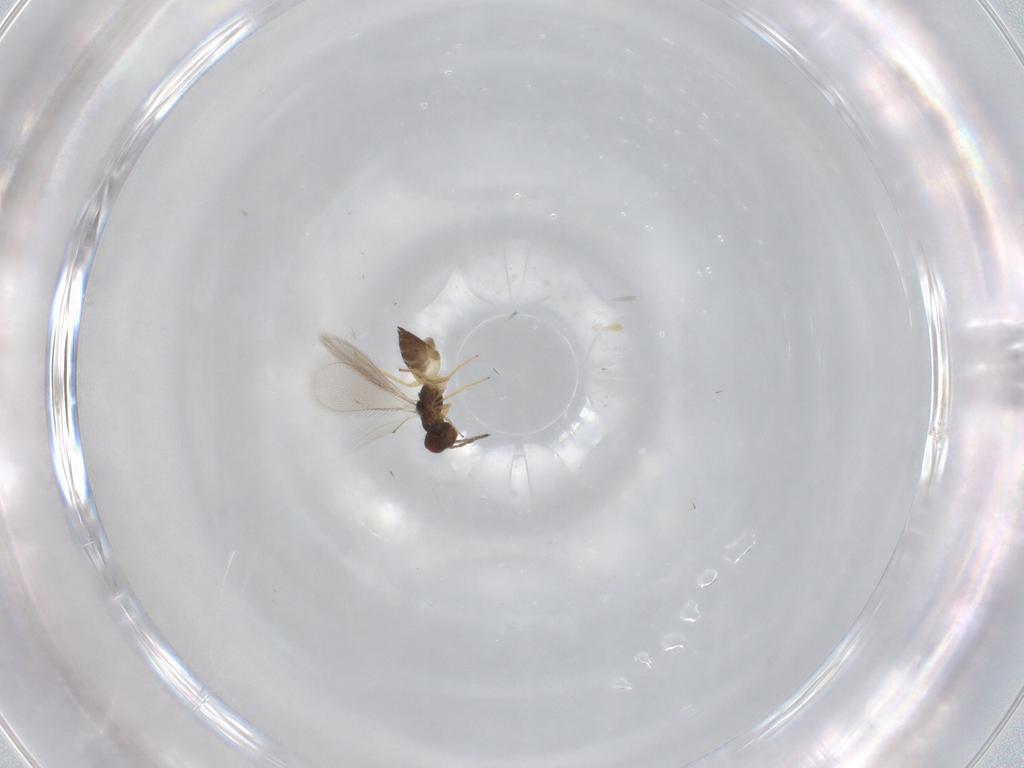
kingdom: Animalia
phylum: Arthropoda
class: Insecta
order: Hymenoptera
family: Eulophidae
